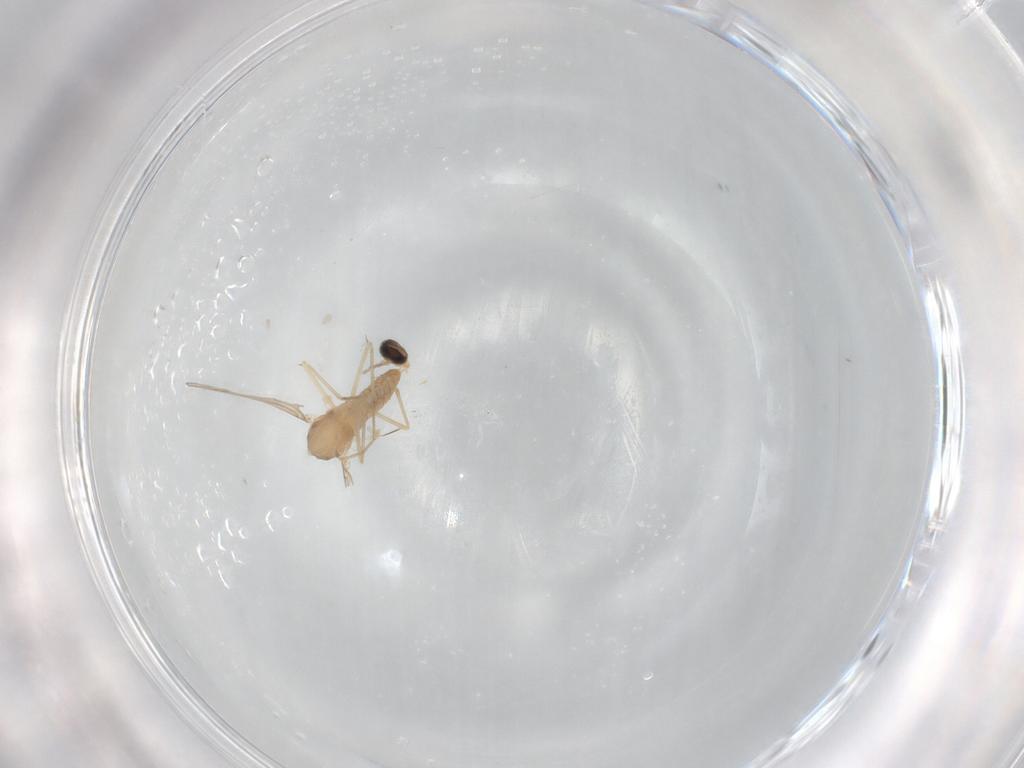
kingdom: Animalia
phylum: Arthropoda
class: Insecta
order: Diptera
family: Cecidomyiidae
